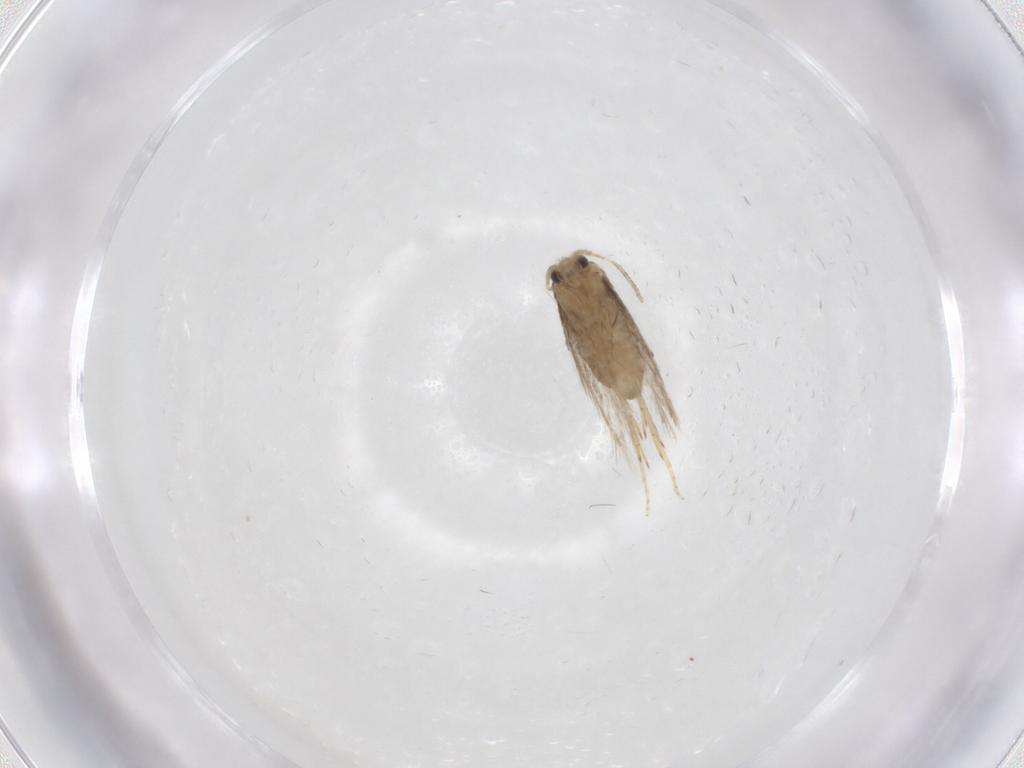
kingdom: Animalia
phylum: Arthropoda
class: Insecta
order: Lepidoptera
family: Nepticulidae
